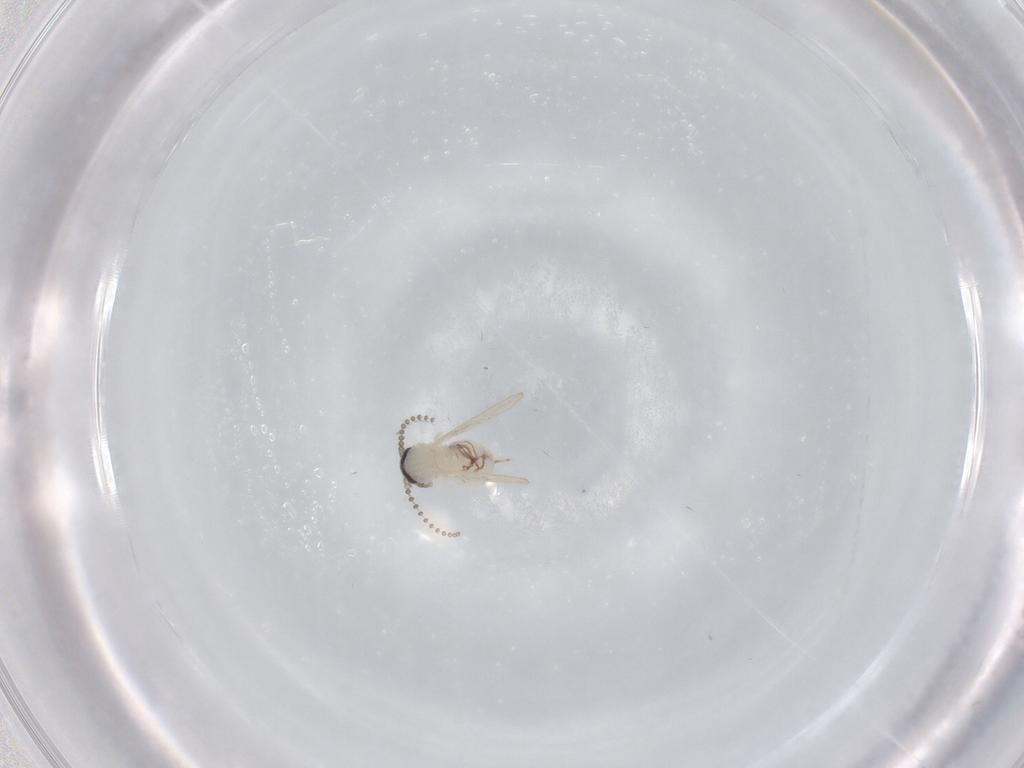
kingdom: Animalia
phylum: Arthropoda
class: Insecta
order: Diptera
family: Psychodidae
